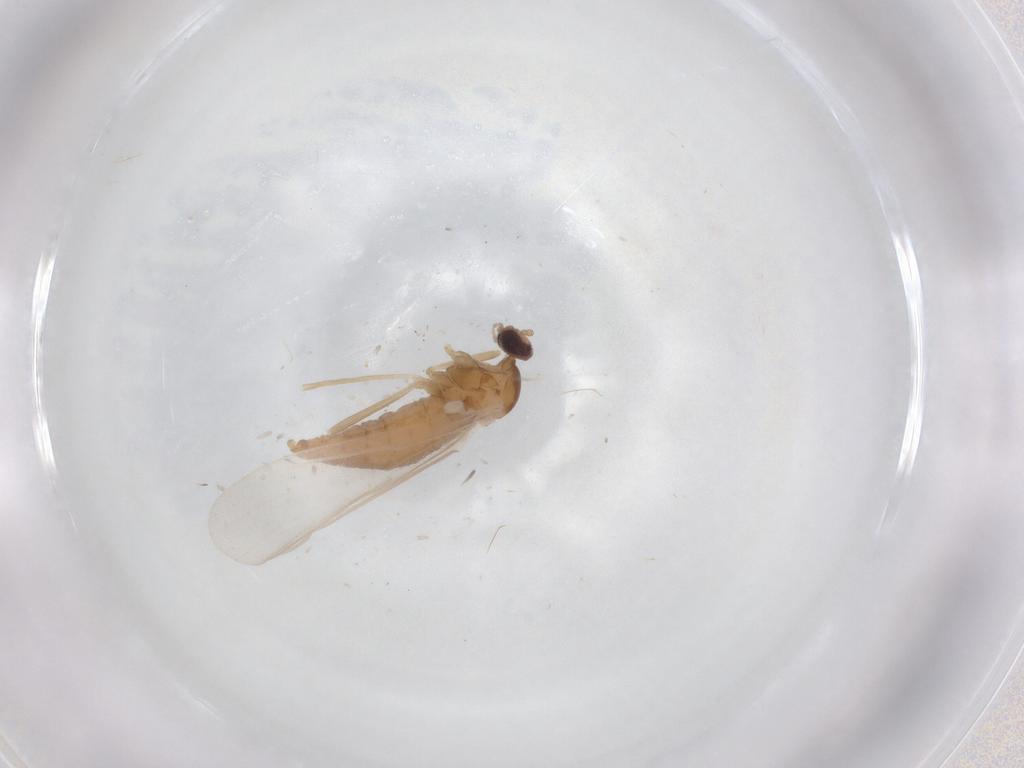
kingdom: Animalia
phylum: Arthropoda
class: Insecta
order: Diptera
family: Cecidomyiidae
